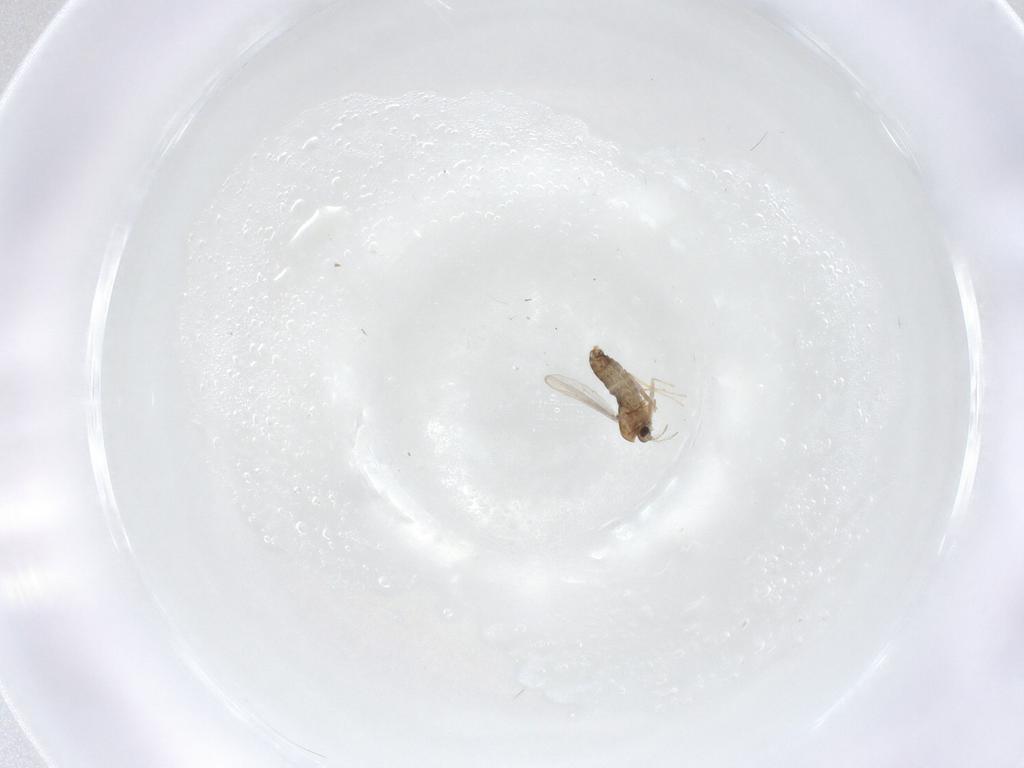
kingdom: Animalia
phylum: Arthropoda
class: Insecta
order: Diptera
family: Chironomidae
